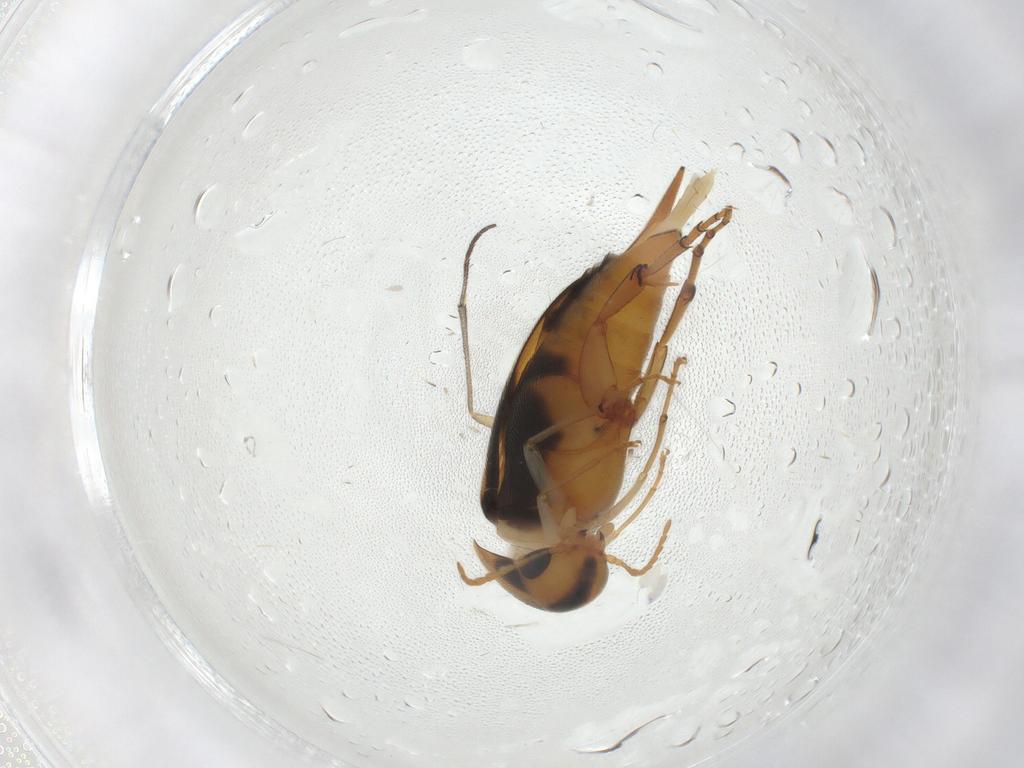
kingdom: Animalia
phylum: Arthropoda
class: Insecta
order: Coleoptera
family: Mordellidae
